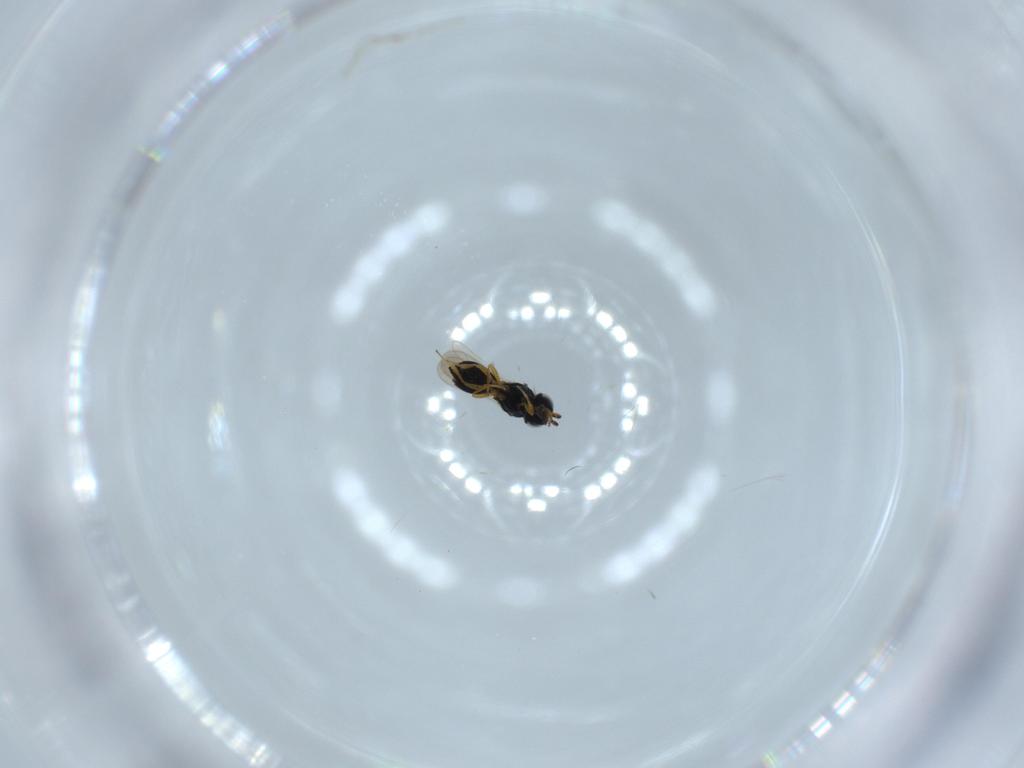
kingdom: Animalia
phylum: Arthropoda
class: Insecta
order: Hymenoptera
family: Scelionidae
